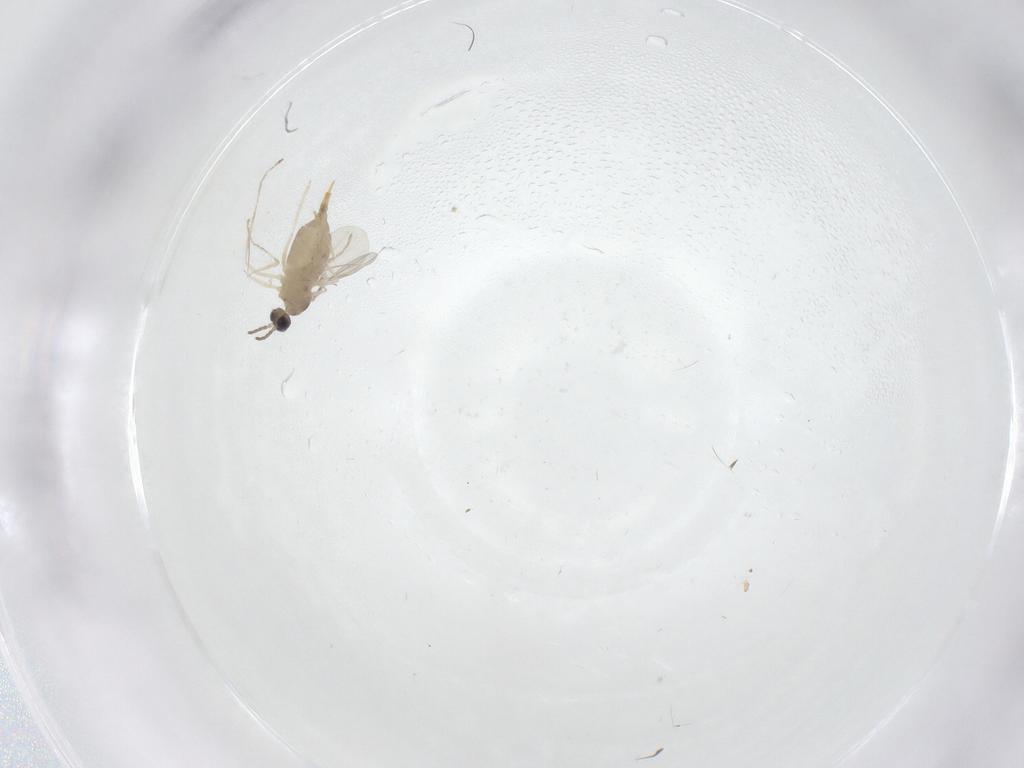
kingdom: Animalia
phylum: Arthropoda
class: Insecta
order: Diptera
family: Cecidomyiidae
